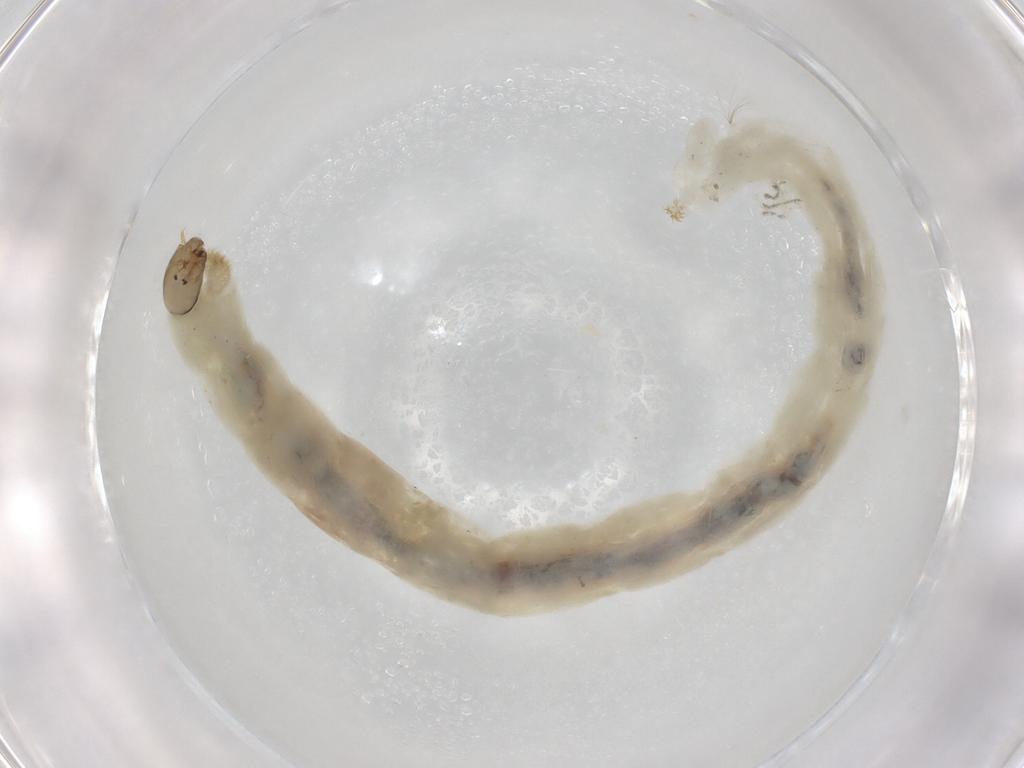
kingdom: Animalia
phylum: Arthropoda
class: Insecta
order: Diptera
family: Chironomidae
